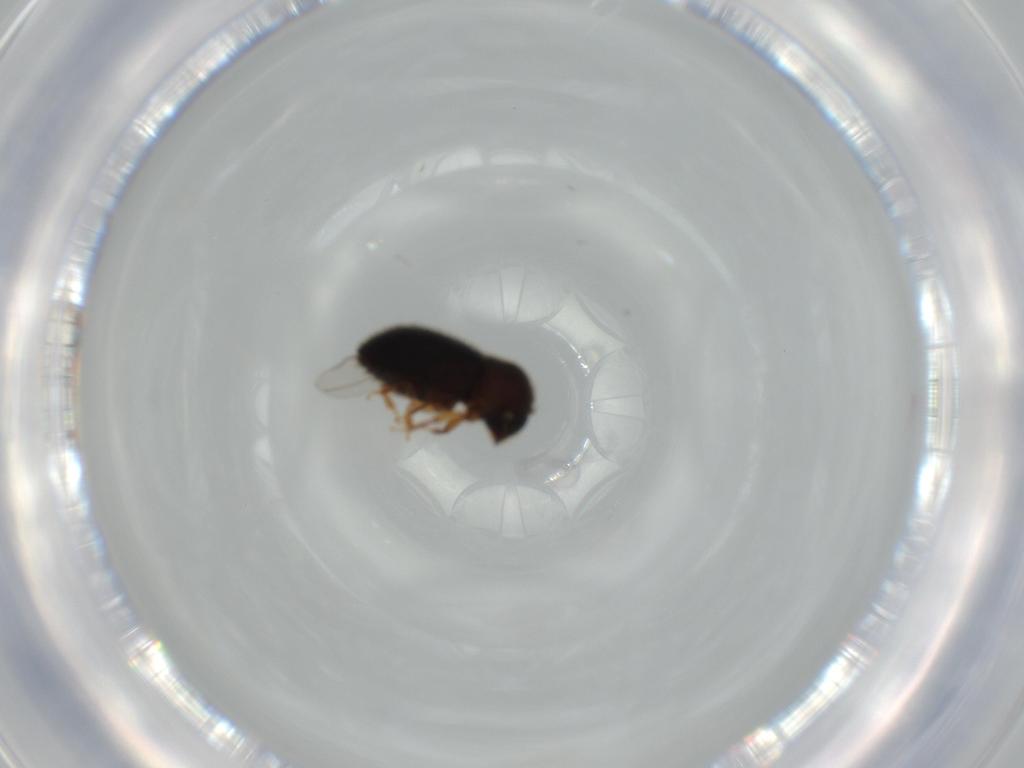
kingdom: Animalia
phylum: Arthropoda
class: Insecta
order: Coleoptera
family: Curculionidae
